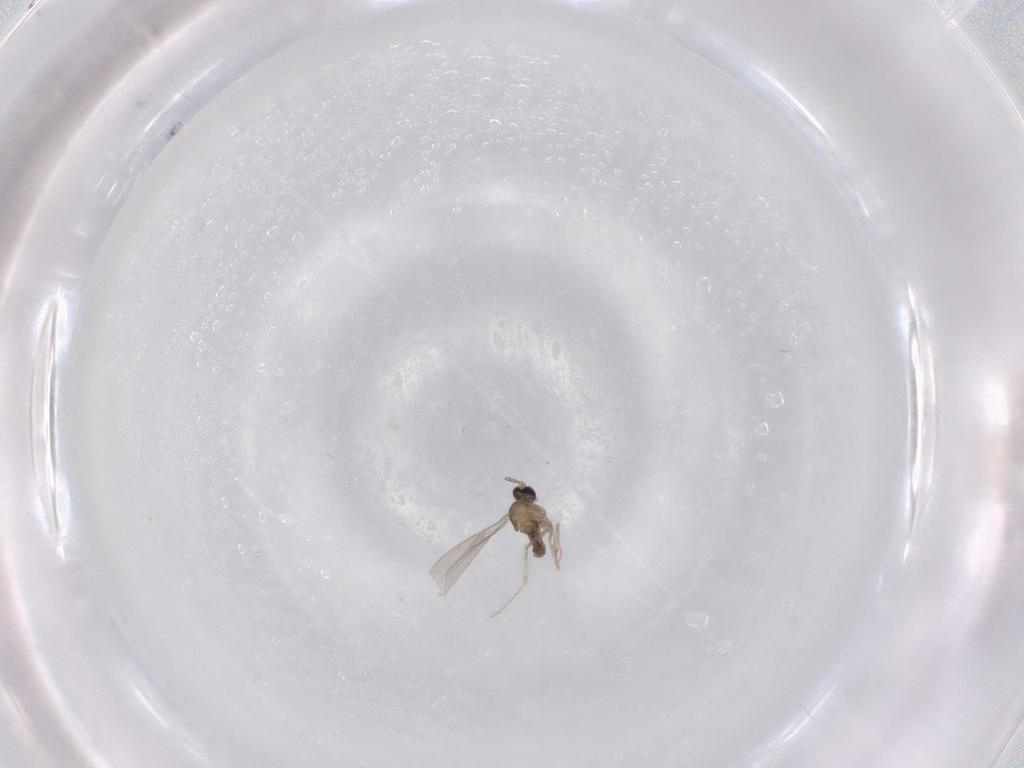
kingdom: Animalia
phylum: Arthropoda
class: Insecta
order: Diptera
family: Cecidomyiidae
